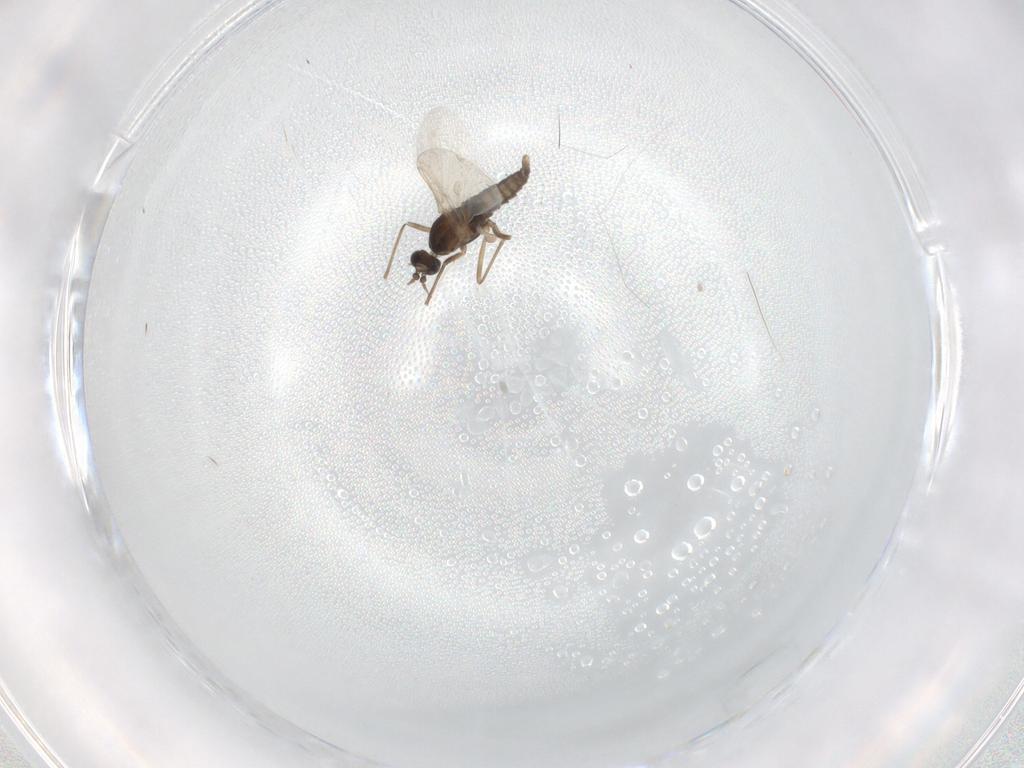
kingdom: Animalia
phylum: Arthropoda
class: Insecta
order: Diptera
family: Cecidomyiidae
